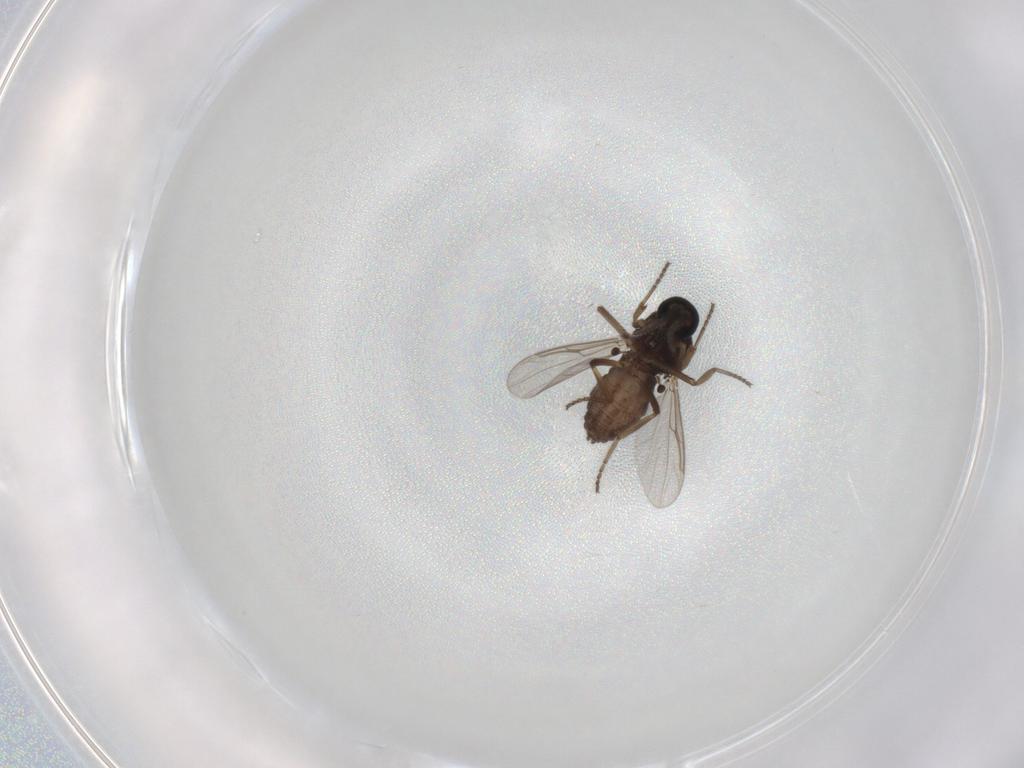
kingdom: Animalia
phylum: Arthropoda
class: Insecta
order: Diptera
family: Ceratopogonidae
